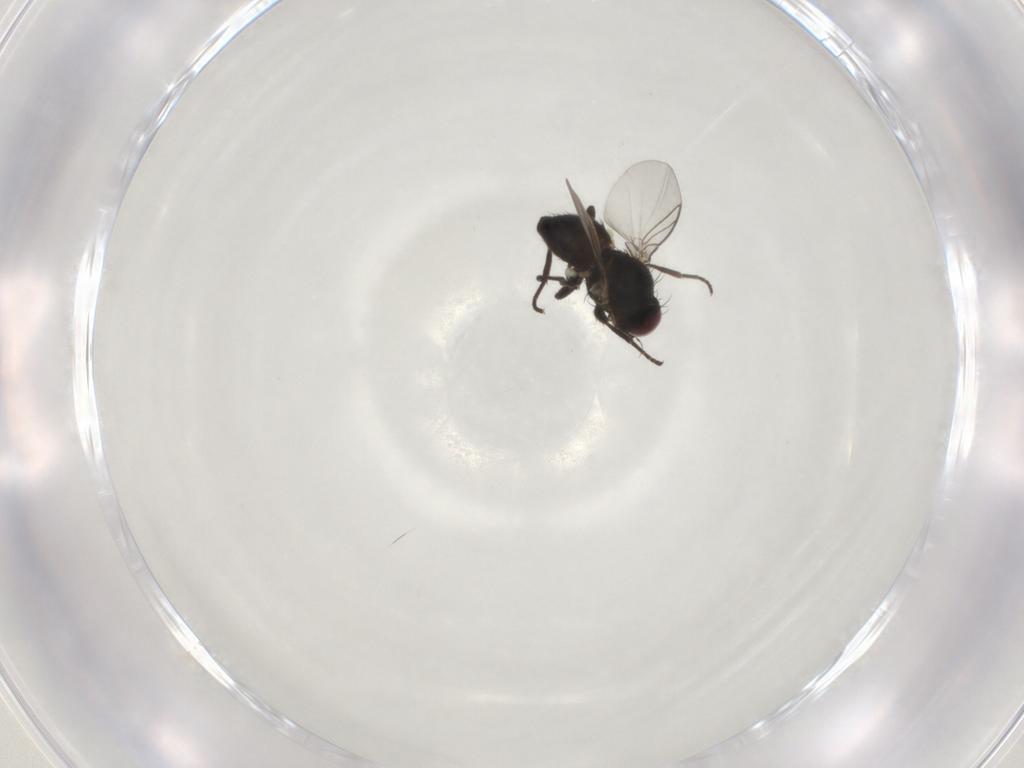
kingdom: Animalia
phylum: Arthropoda
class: Insecta
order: Diptera
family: Agromyzidae
